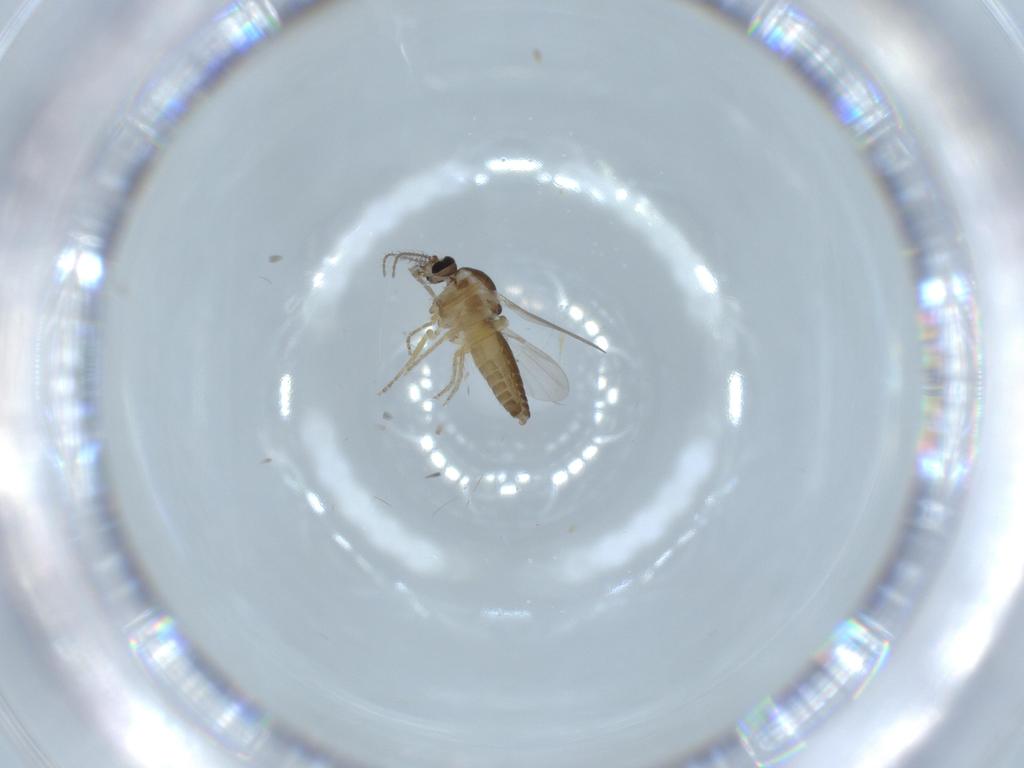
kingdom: Animalia
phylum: Arthropoda
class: Insecta
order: Diptera
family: Ceratopogonidae
